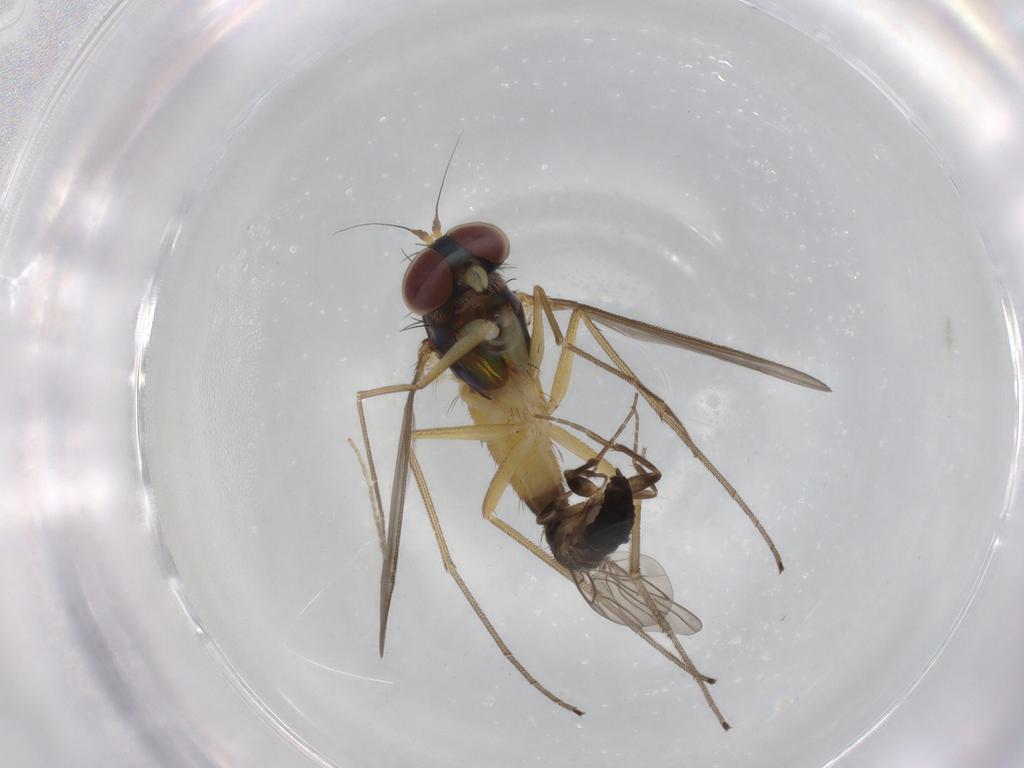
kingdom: Animalia
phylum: Arthropoda
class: Insecta
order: Diptera
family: Dolichopodidae
